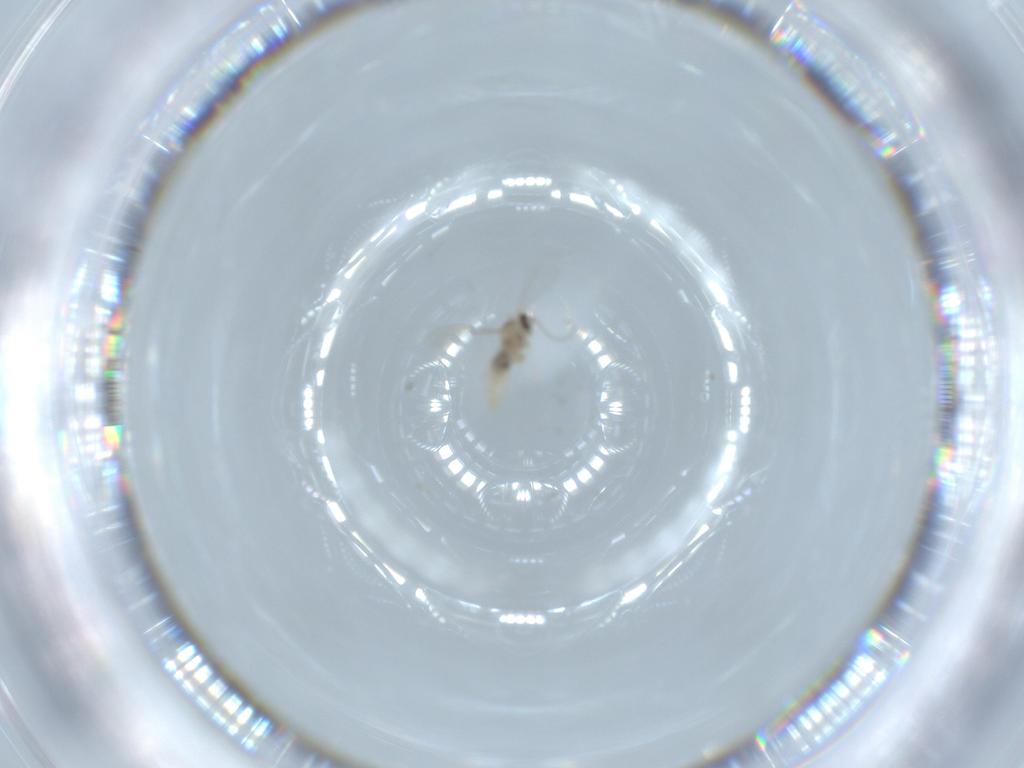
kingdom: Animalia
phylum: Arthropoda
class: Insecta
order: Diptera
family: Cecidomyiidae
